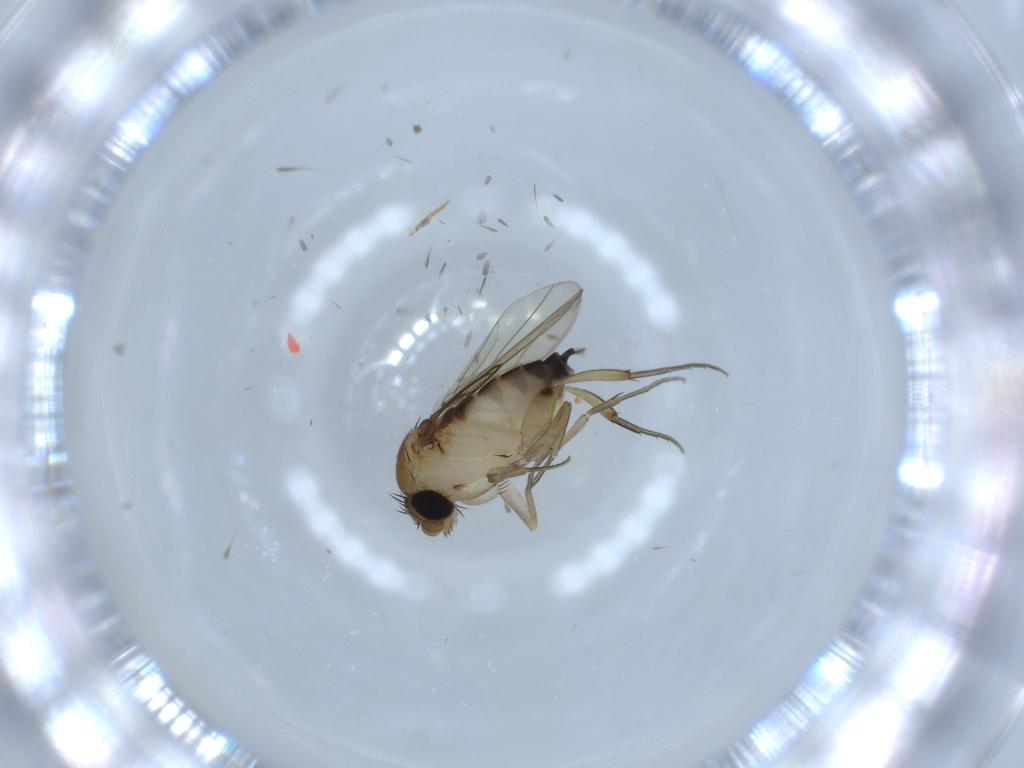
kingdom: Animalia
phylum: Arthropoda
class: Insecta
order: Diptera
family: Phoridae
